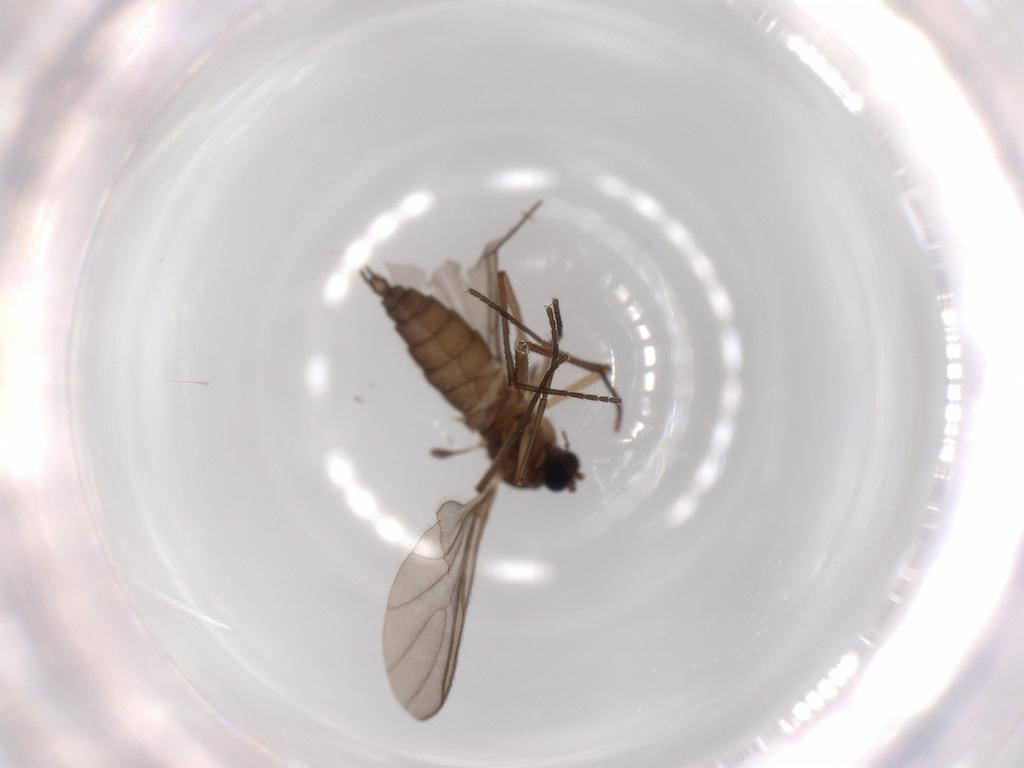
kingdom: Animalia
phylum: Arthropoda
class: Insecta
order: Diptera
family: Sciaridae
